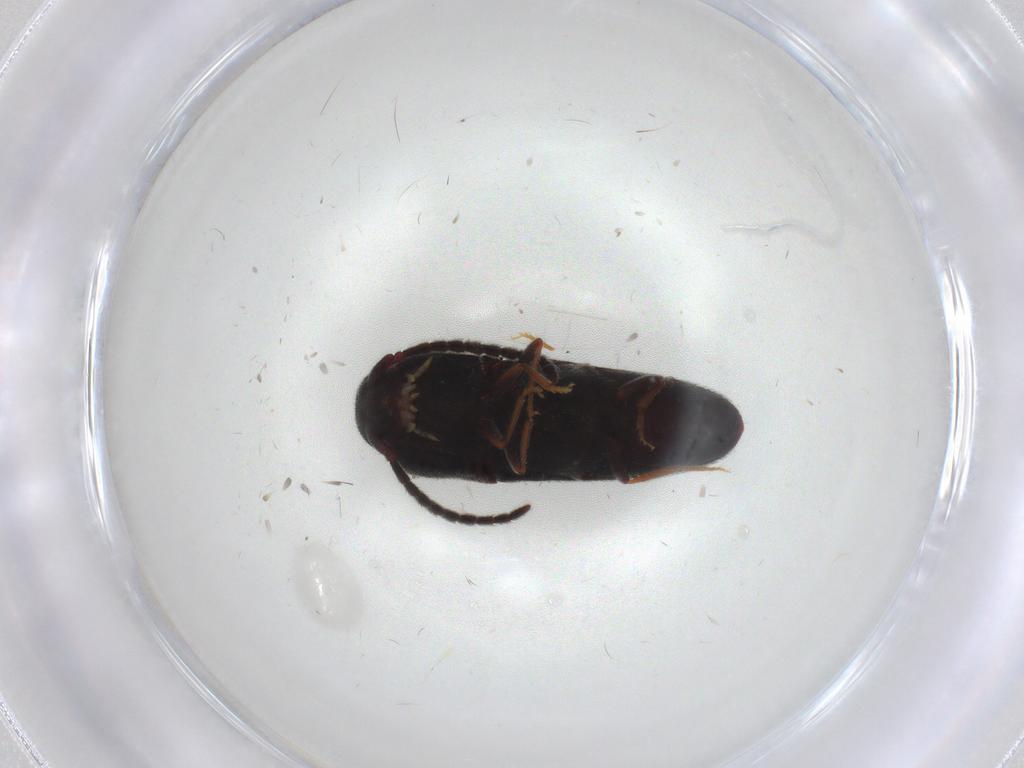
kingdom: Animalia
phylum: Arthropoda
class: Insecta
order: Coleoptera
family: Eucnemidae
